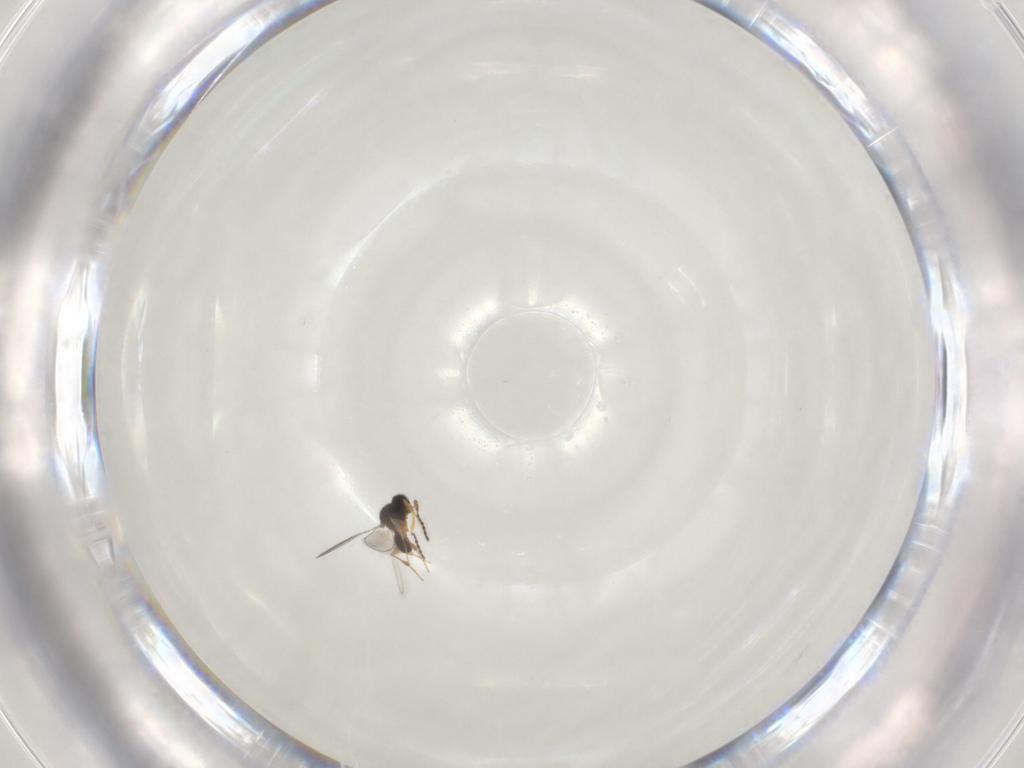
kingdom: Animalia
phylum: Arthropoda
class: Insecta
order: Hymenoptera
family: Platygastridae
